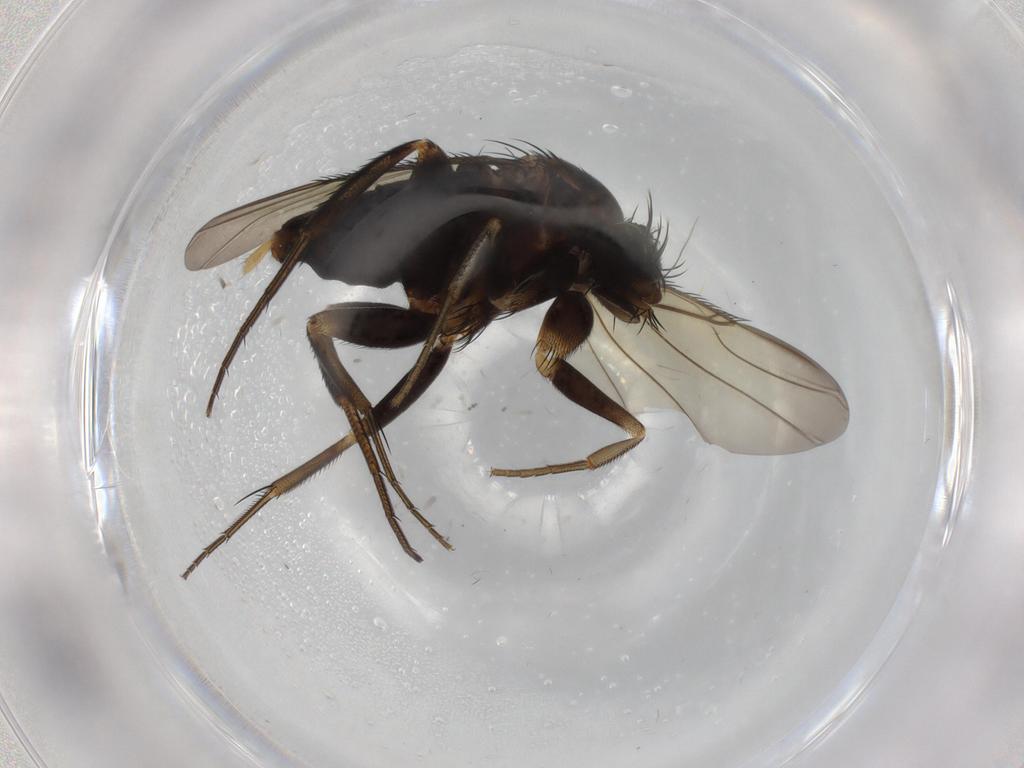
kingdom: Animalia
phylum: Arthropoda
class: Insecta
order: Diptera
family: Phoridae
